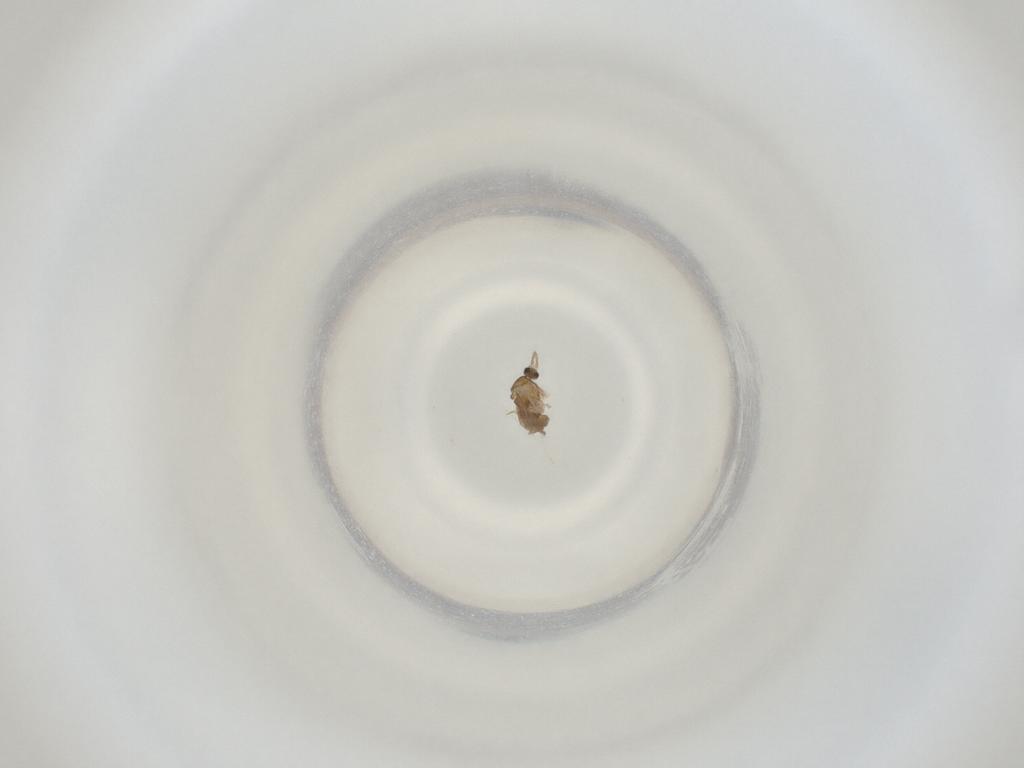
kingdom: Animalia
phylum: Arthropoda
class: Insecta
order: Diptera
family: Cecidomyiidae
